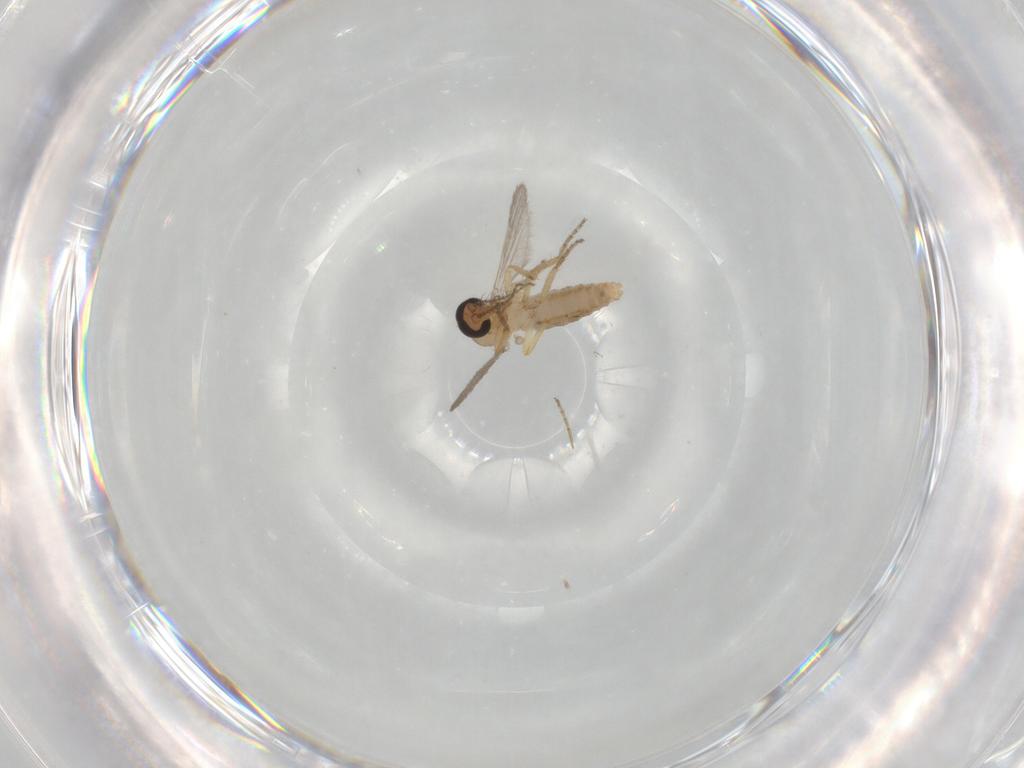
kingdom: Animalia
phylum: Arthropoda
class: Insecta
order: Diptera
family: Ceratopogonidae
